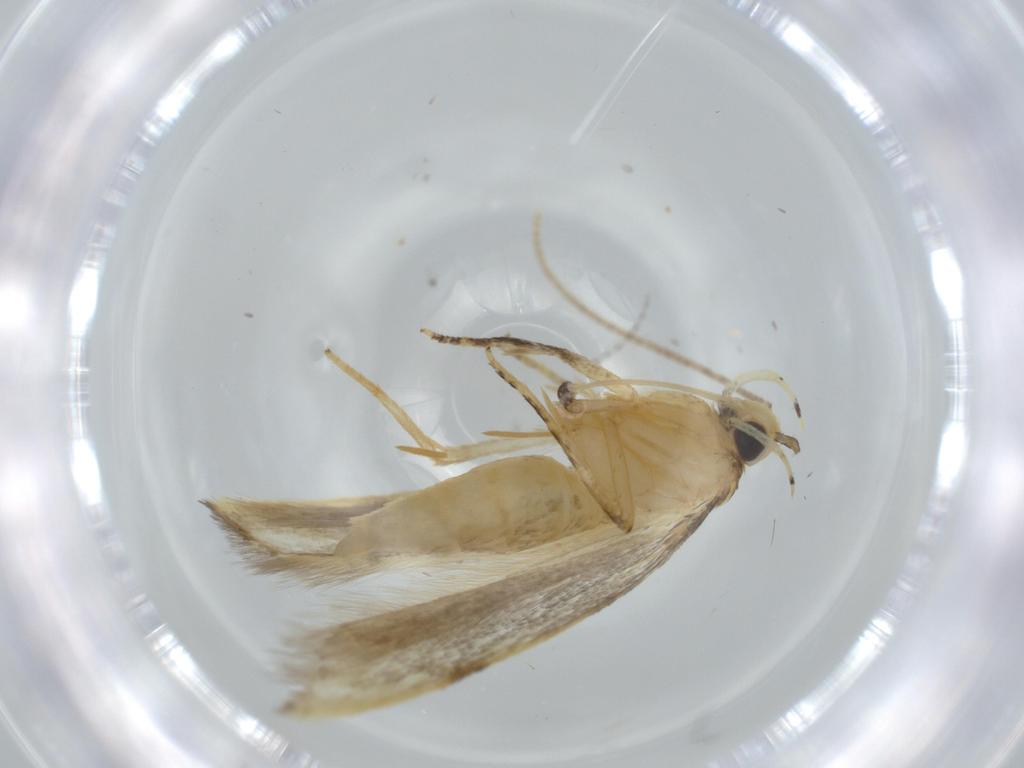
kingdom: Animalia
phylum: Arthropoda
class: Insecta
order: Lepidoptera
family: Autostichidae
